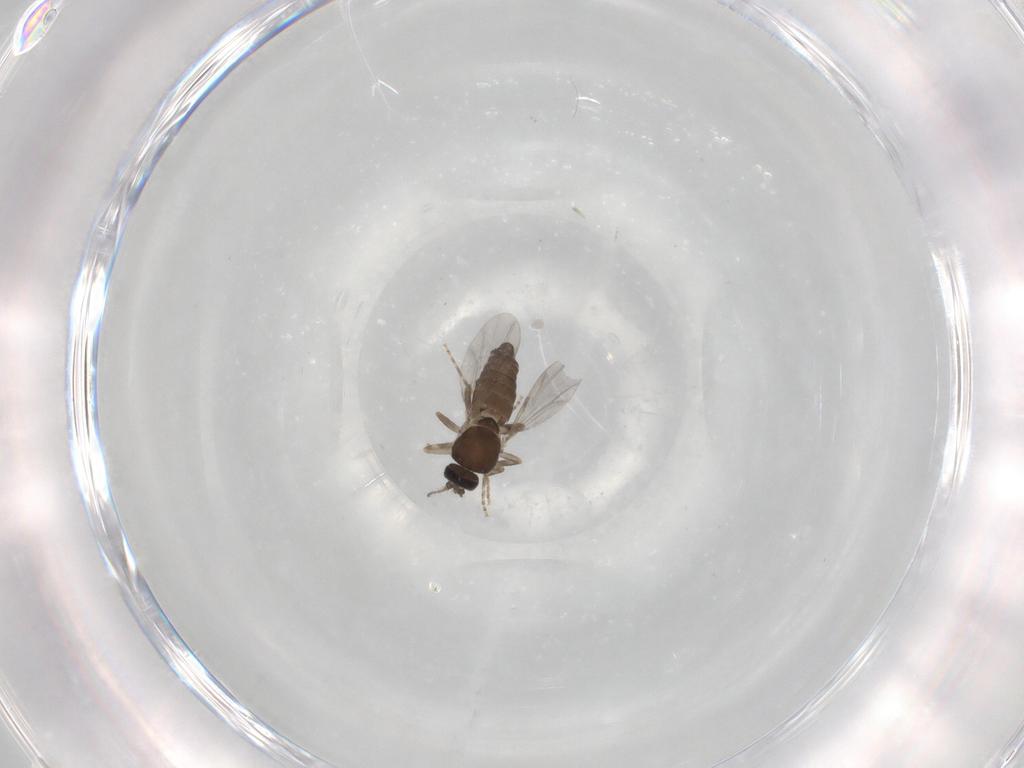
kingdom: Animalia
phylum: Arthropoda
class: Insecta
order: Diptera
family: Ceratopogonidae
